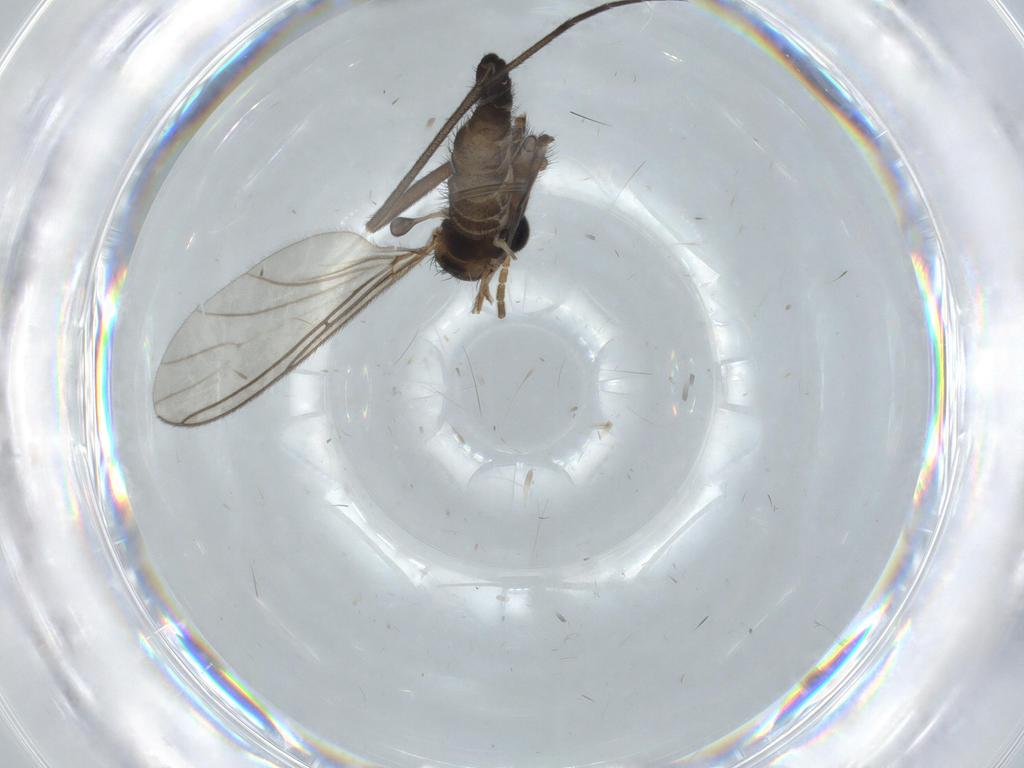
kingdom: Animalia
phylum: Arthropoda
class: Insecta
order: Diptera
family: Sciaridae
